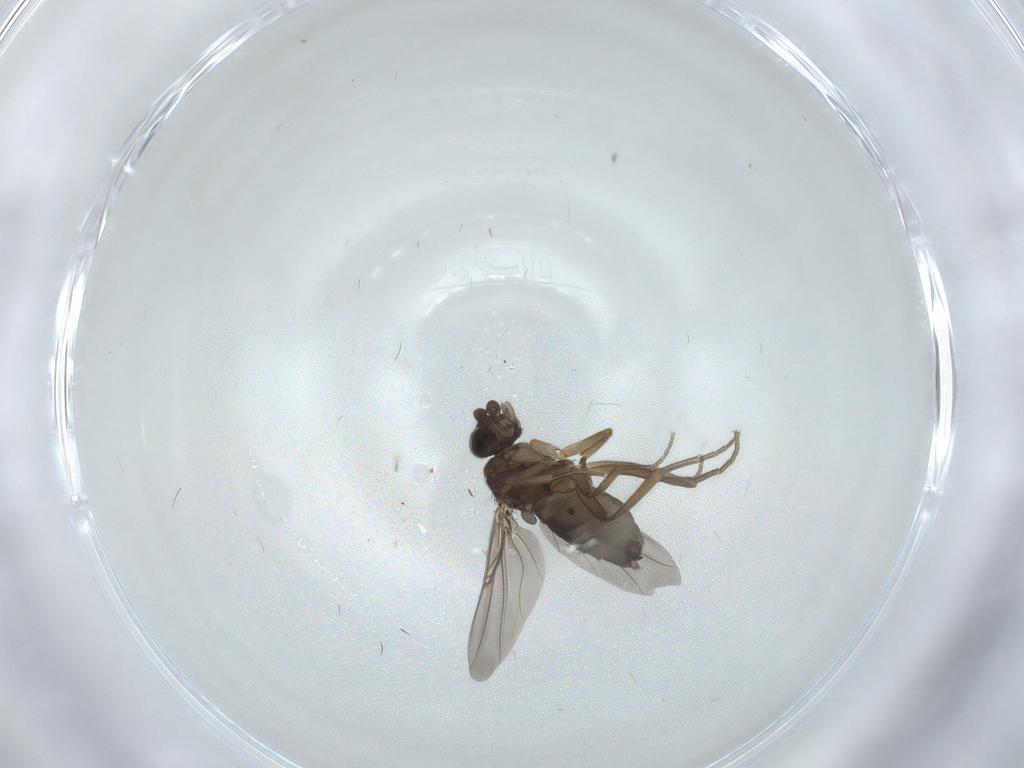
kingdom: Animalia
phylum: Arthropoda
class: Insecta
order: Diptera
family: Phoridae
